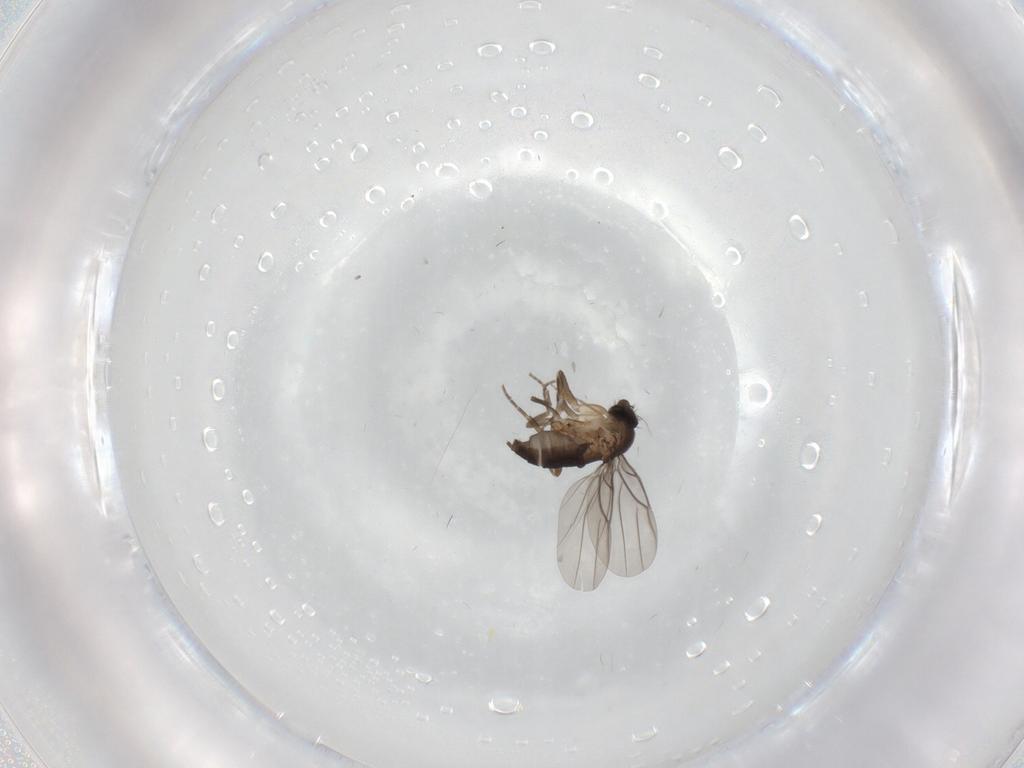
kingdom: Animalia
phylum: Arthropoda
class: Insecta
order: Diptera
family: Chironomidae
